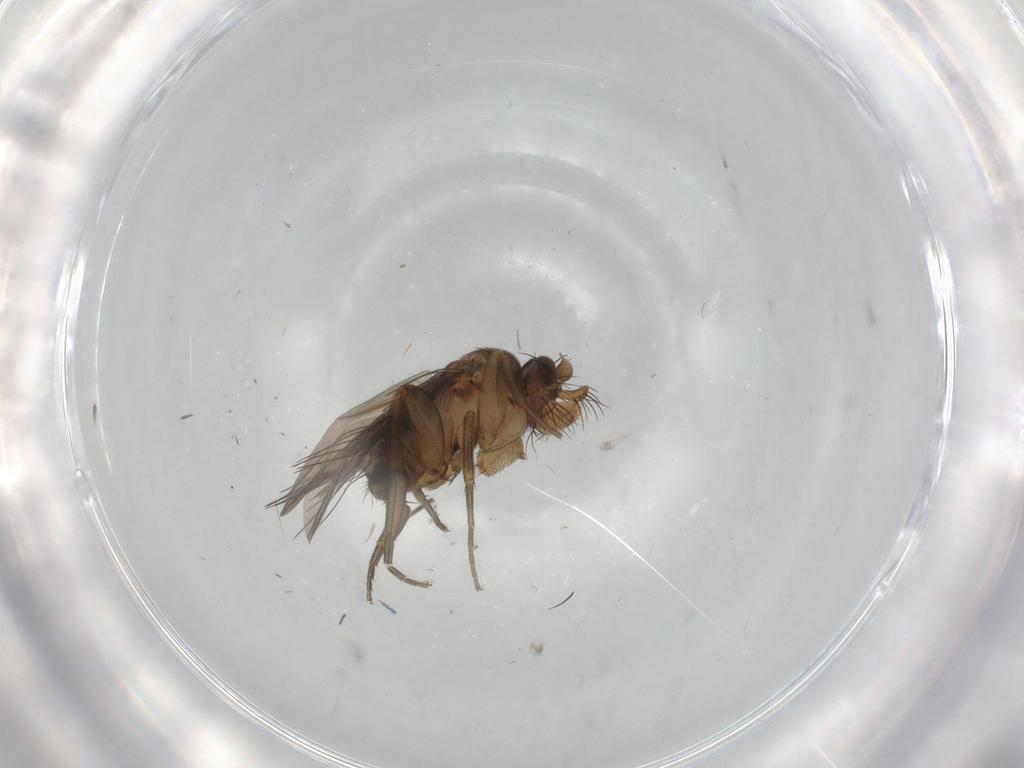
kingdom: Animalia
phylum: Arthropoda
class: Insecta
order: Diptera
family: Phoridae
